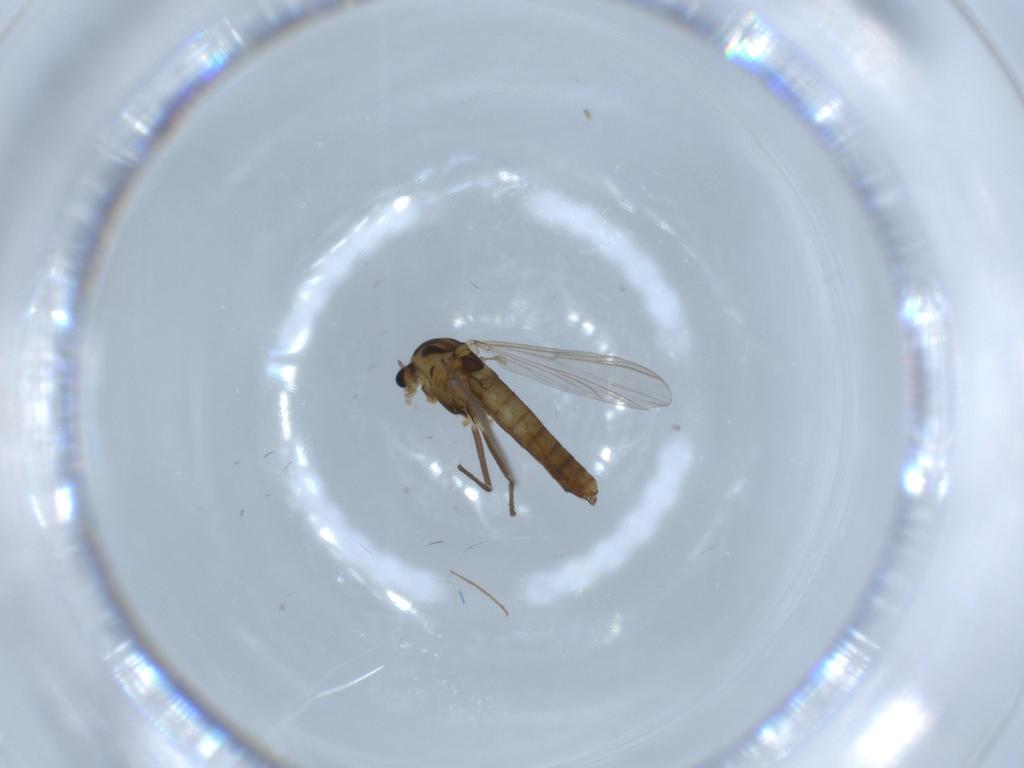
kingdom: Animalia
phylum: Arthropoda
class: Insecta
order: Diptera
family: Chironomidae
